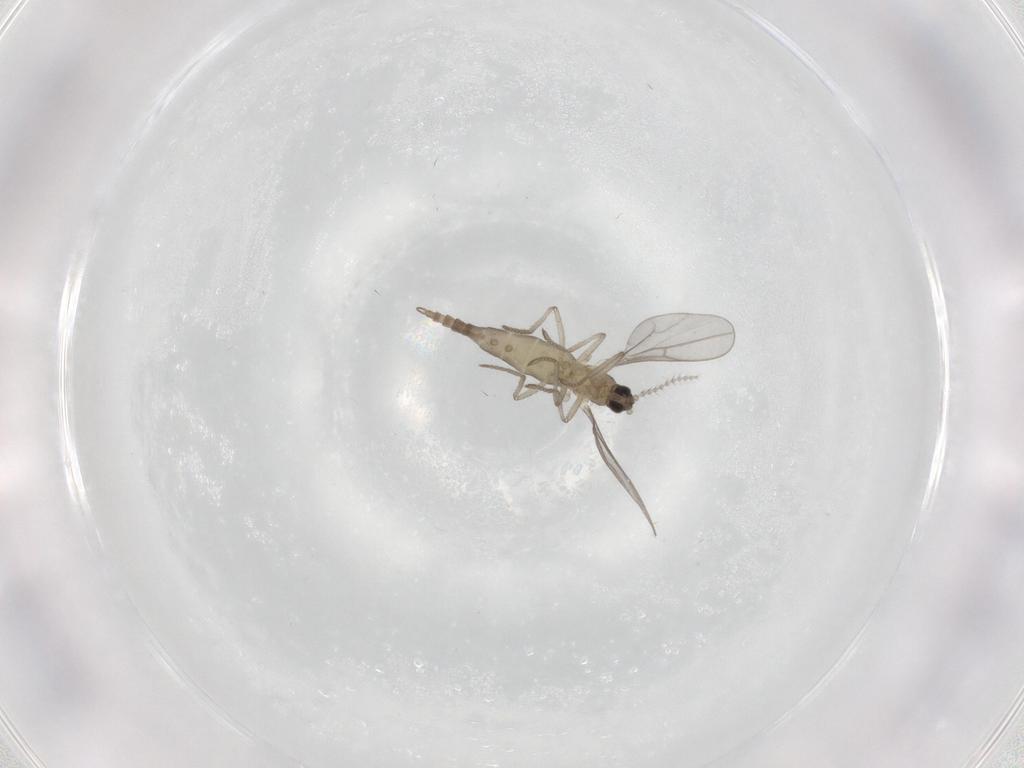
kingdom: Animalia
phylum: Arthropoda
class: Insecta
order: Diptera
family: Cecidomyiidae
